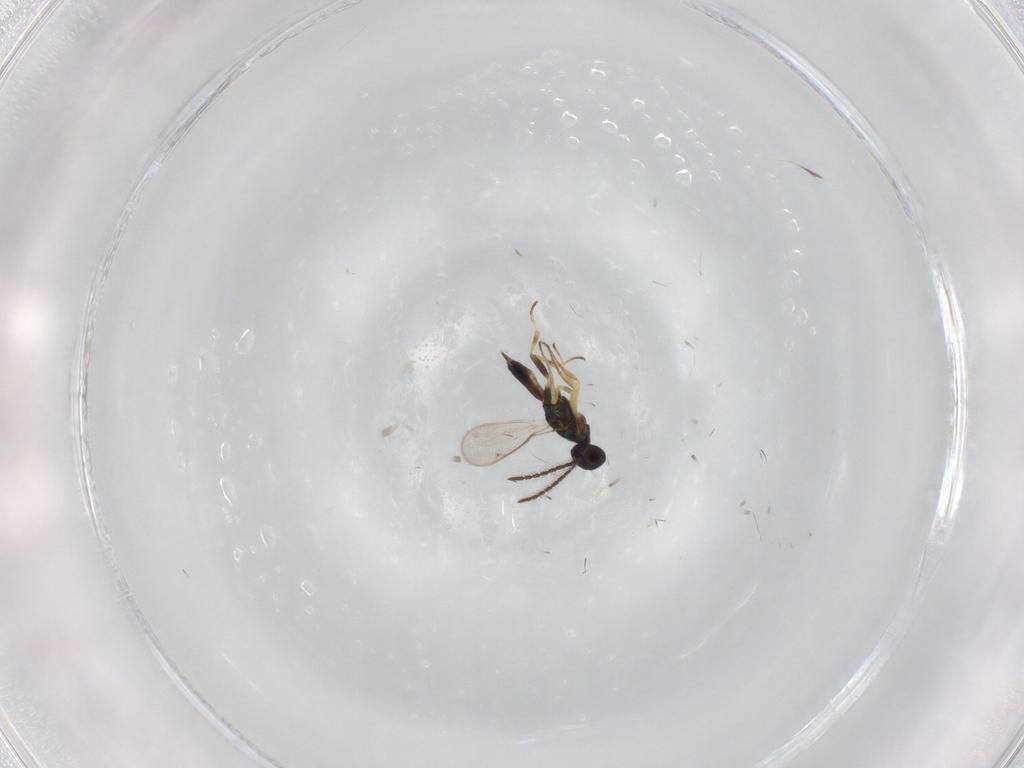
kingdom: Animalia
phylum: Arthropoda
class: Insecta
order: Hymenoptera
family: Scelionidae
